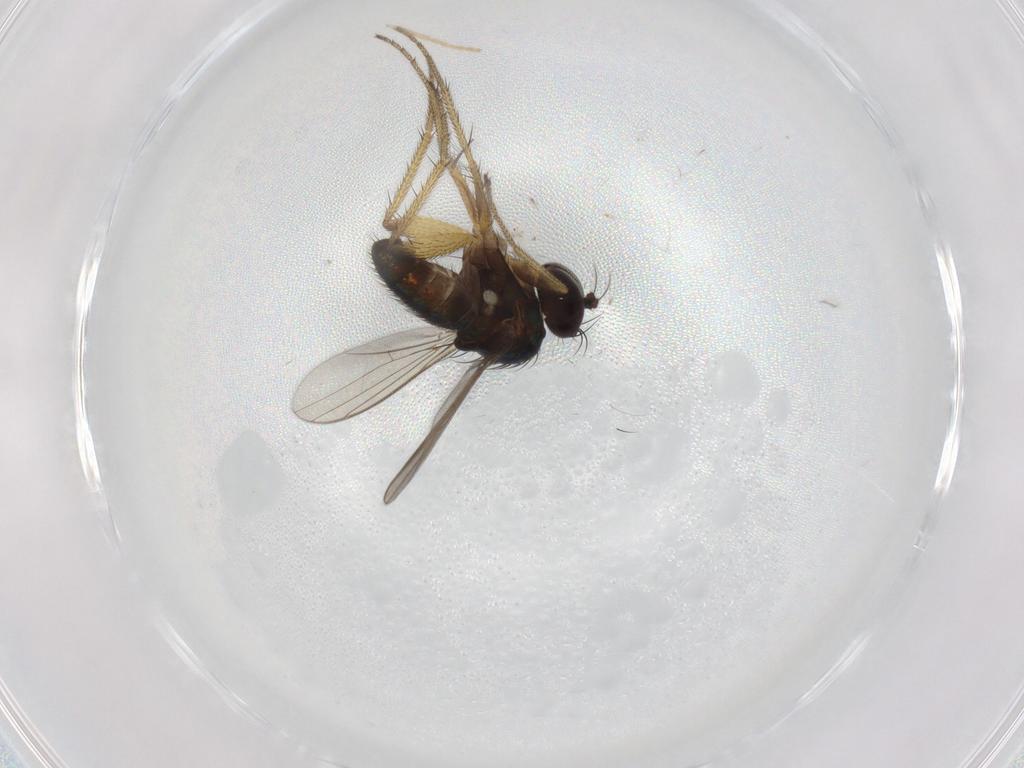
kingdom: Animalia
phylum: Arthropoda
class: Insecta
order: Diptera
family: Dolichopodidae
